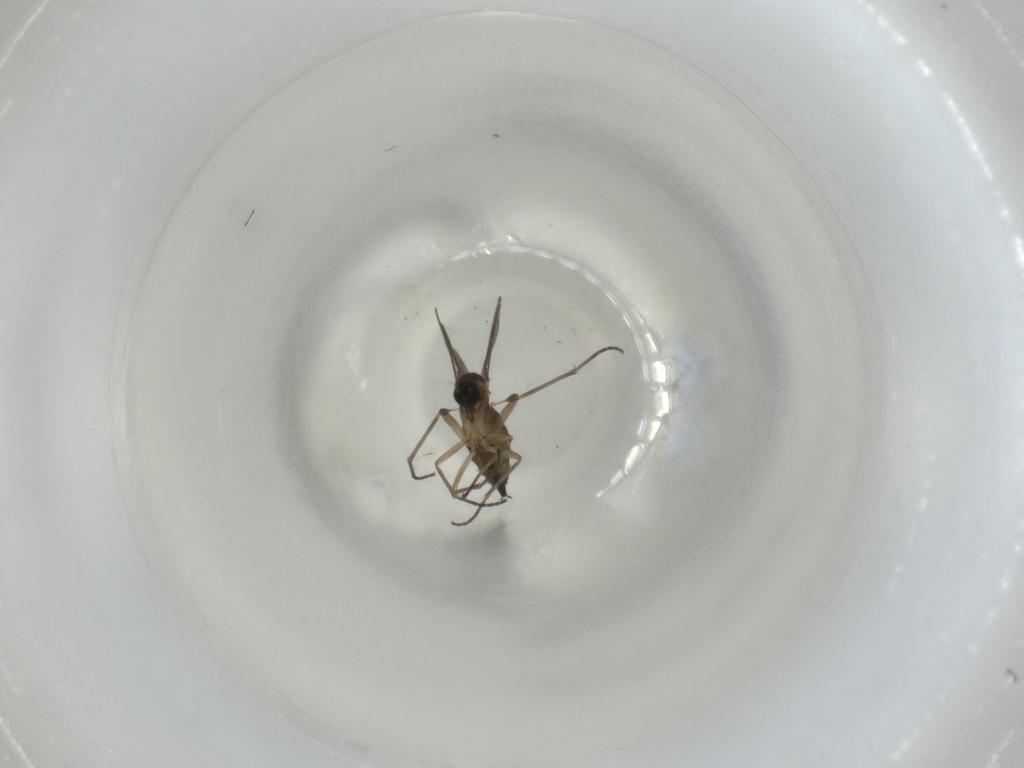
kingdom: Animalia
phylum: Arthropoda
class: Insecta
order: Diptera
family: Sciaridae
